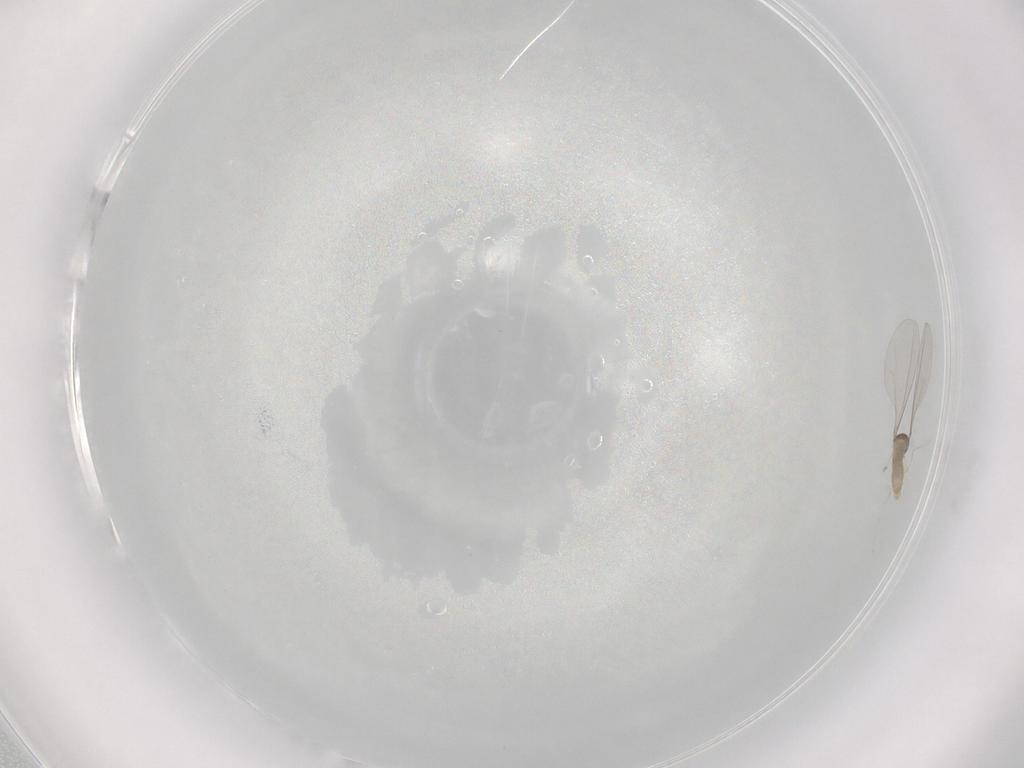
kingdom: Animalia
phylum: Arthropoda
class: Insecta
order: Diptera
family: Cecidomyiidae
